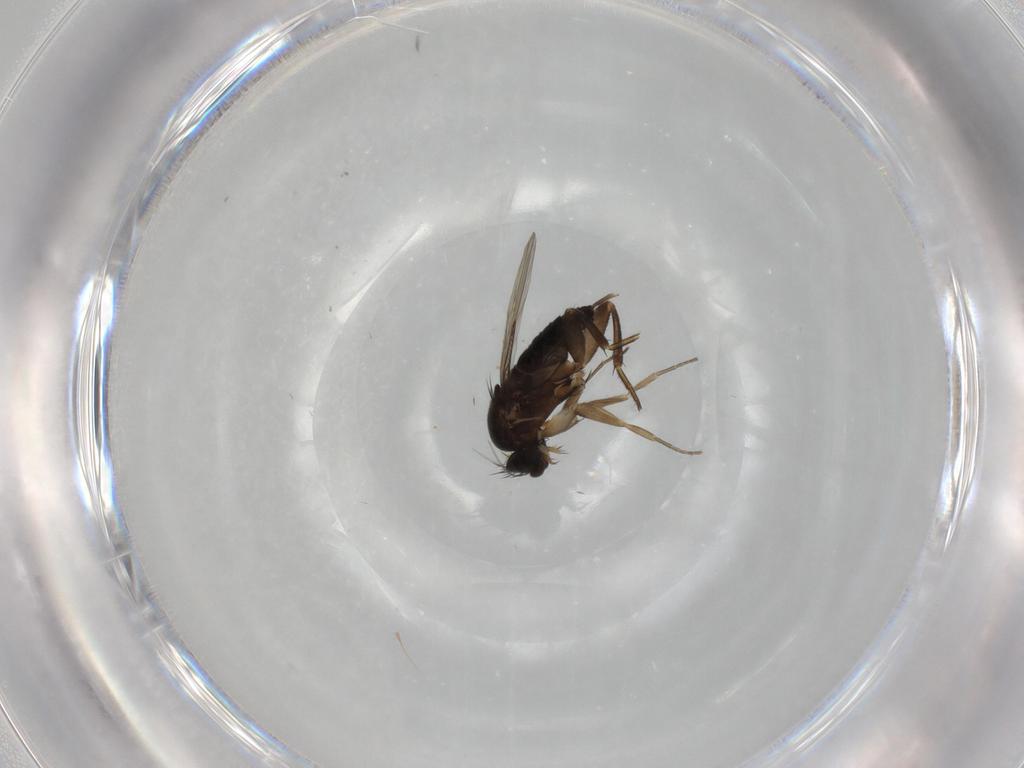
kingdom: Animalia
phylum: Arthropoda
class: Insecta
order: Diptera
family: Phoridae
